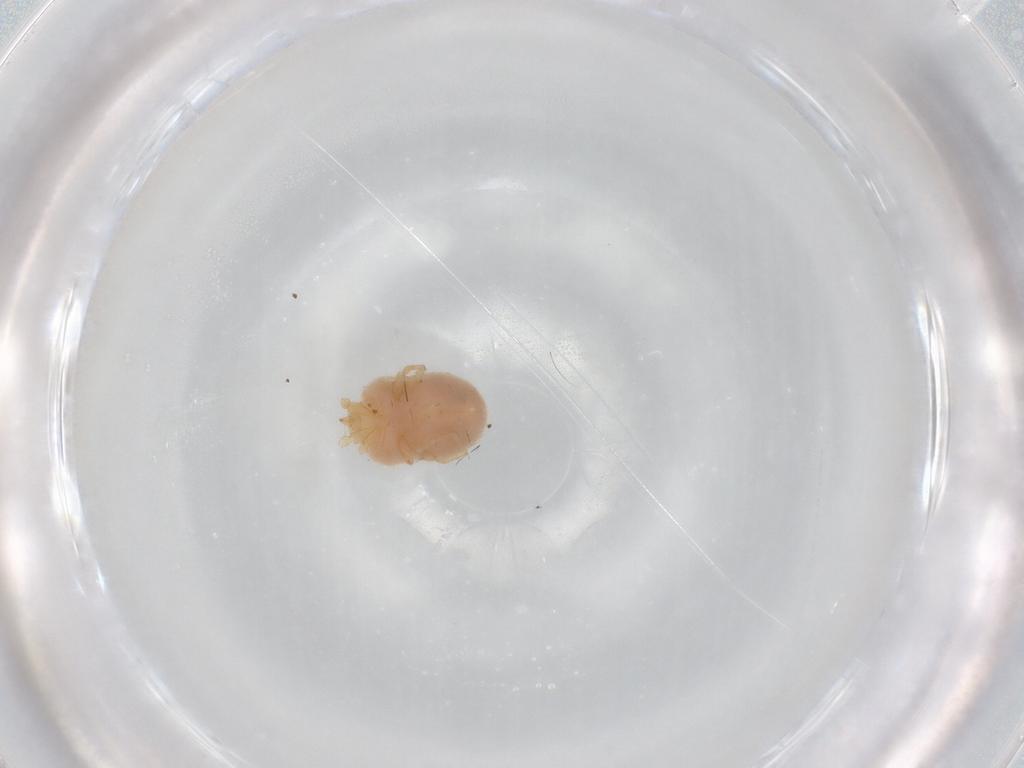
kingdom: Animalia
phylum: Arthropoda
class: Arachnida
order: Trombidiformes
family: Erythraeidae
